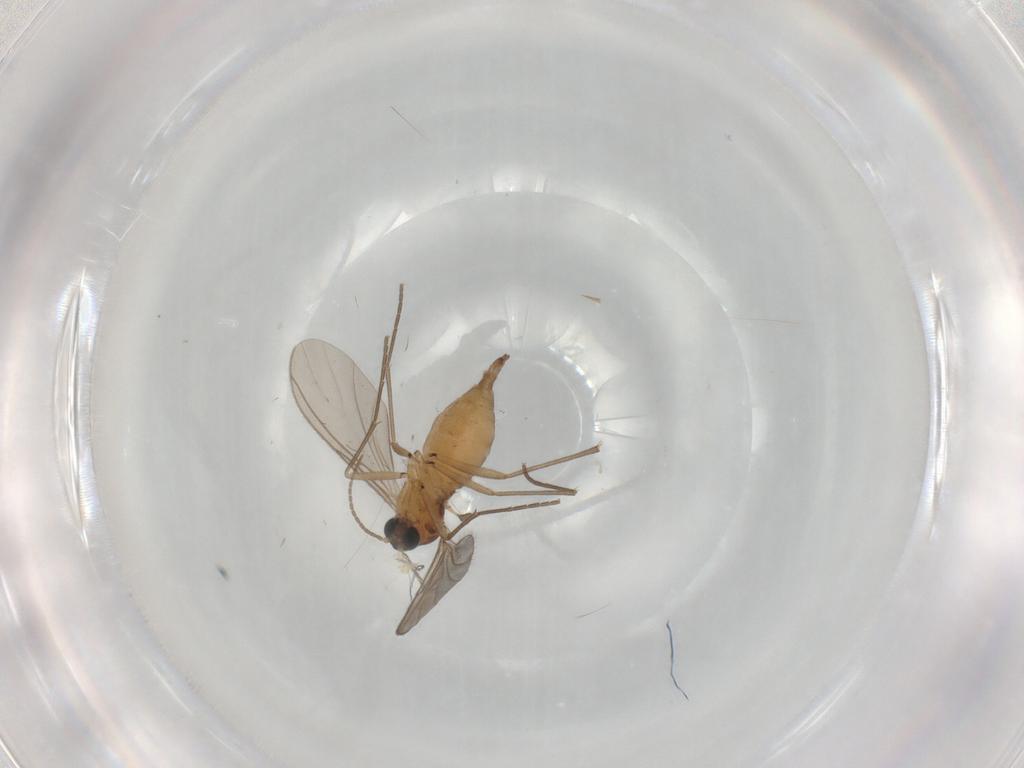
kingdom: Animalia
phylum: Arthropoda
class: Insecta
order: Diptera
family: Sciaridae
